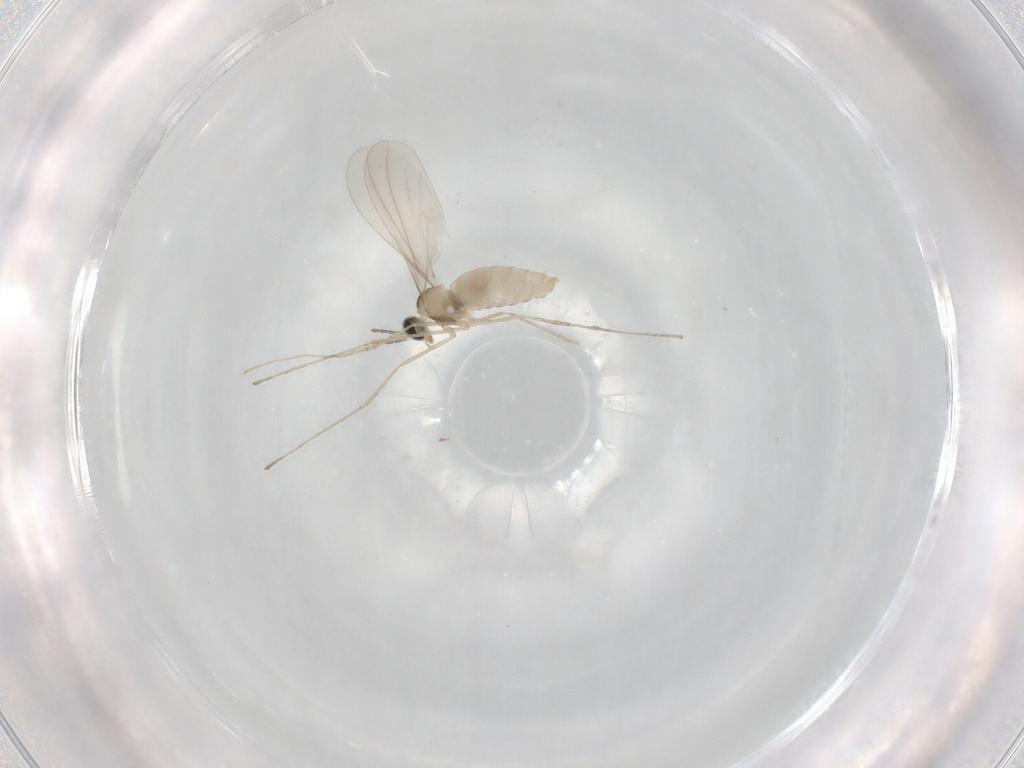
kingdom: Animalia
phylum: Arthropoda
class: Insecta
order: Diptera
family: Cecidomyiidae
